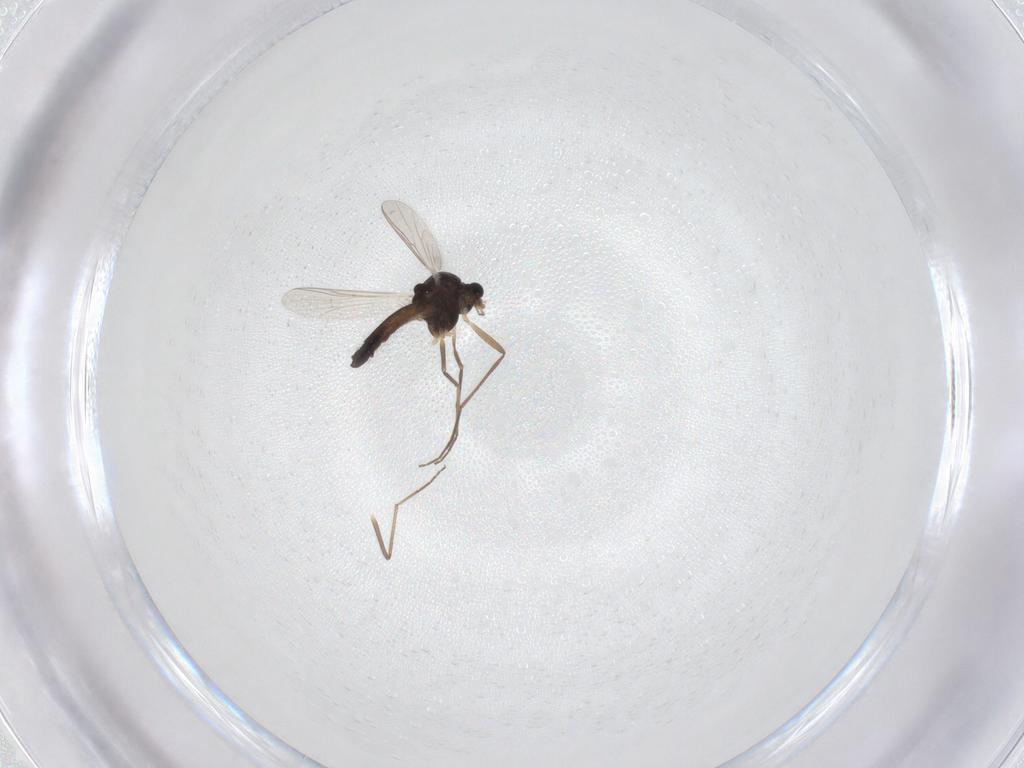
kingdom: Animalia
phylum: Arthropoda
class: Insecta
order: Diptera
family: Chironomidae
